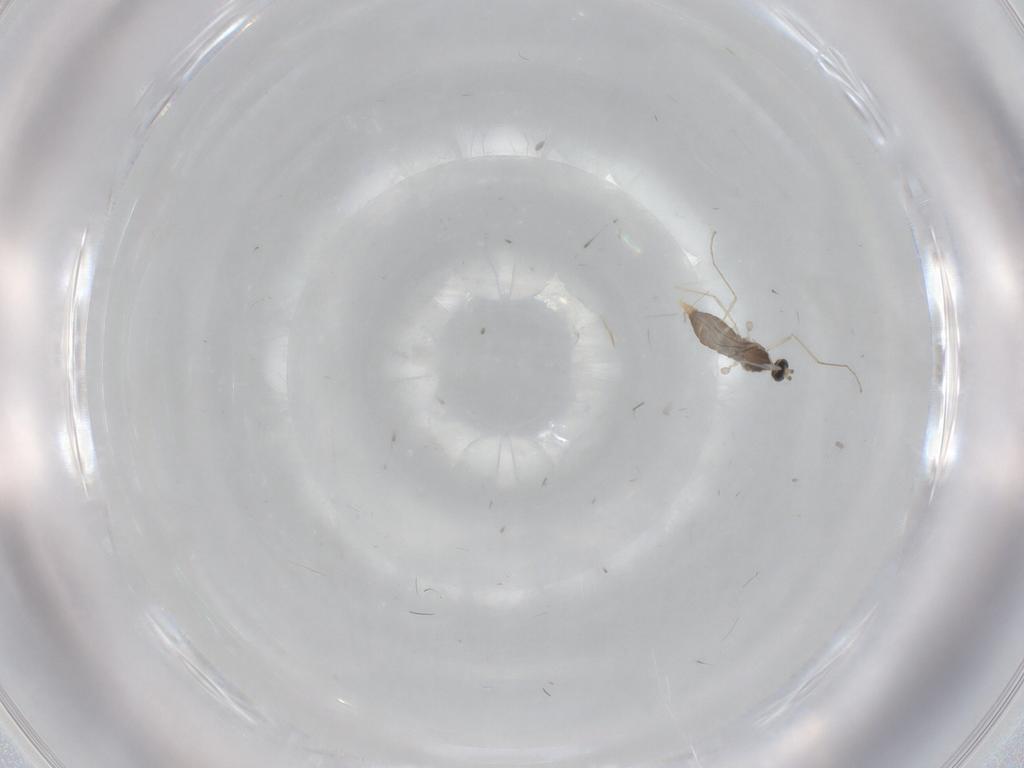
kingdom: Animalia
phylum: Arthropoda
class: Insecta
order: Diptera
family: Cecidomyiidae
